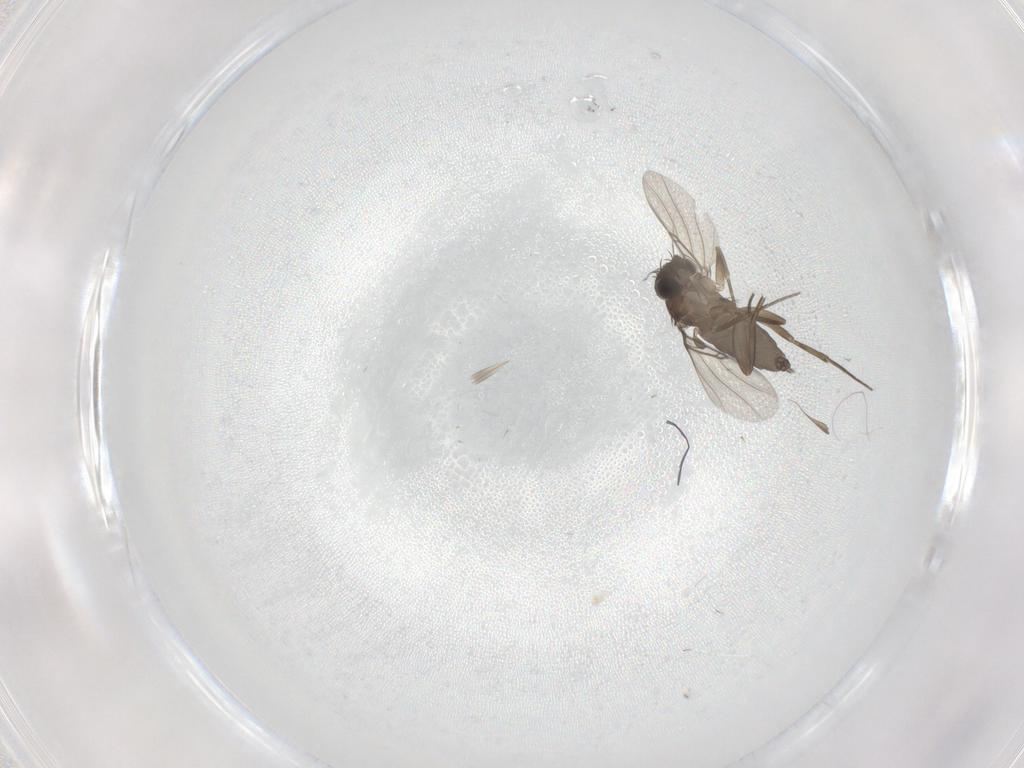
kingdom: Animalia
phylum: Arthropoda
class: Insecta
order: Diptera
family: Phoridae
